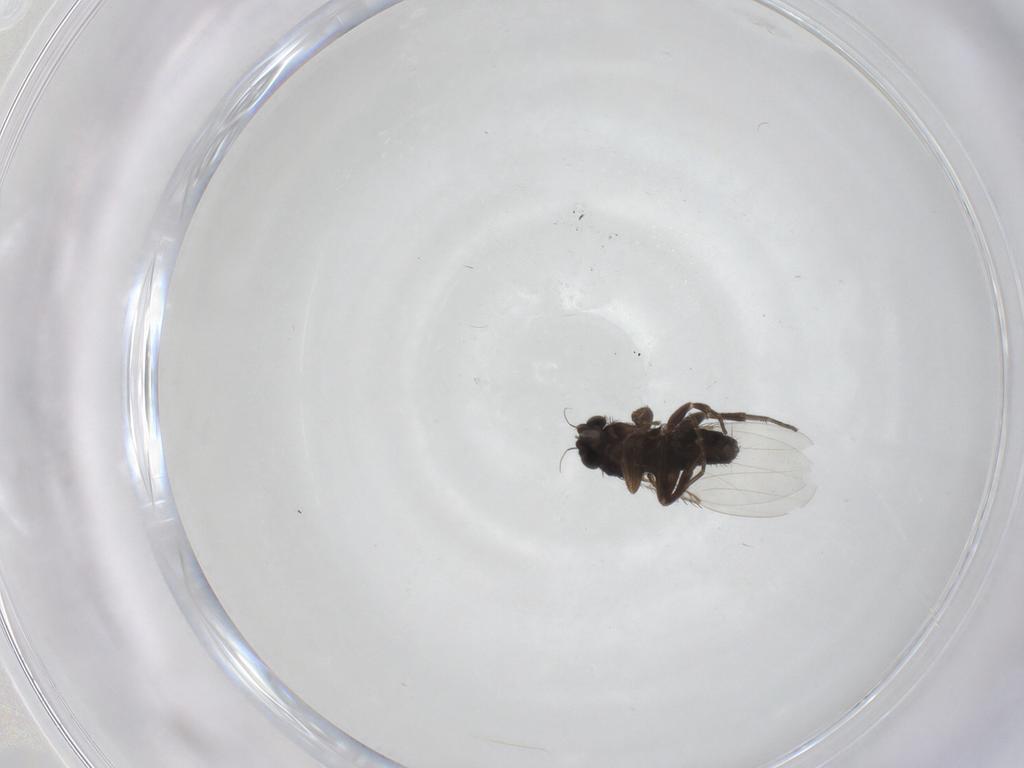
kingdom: Animalia
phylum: Arthropoda
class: Insecta
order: Diptera
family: Phoridae
